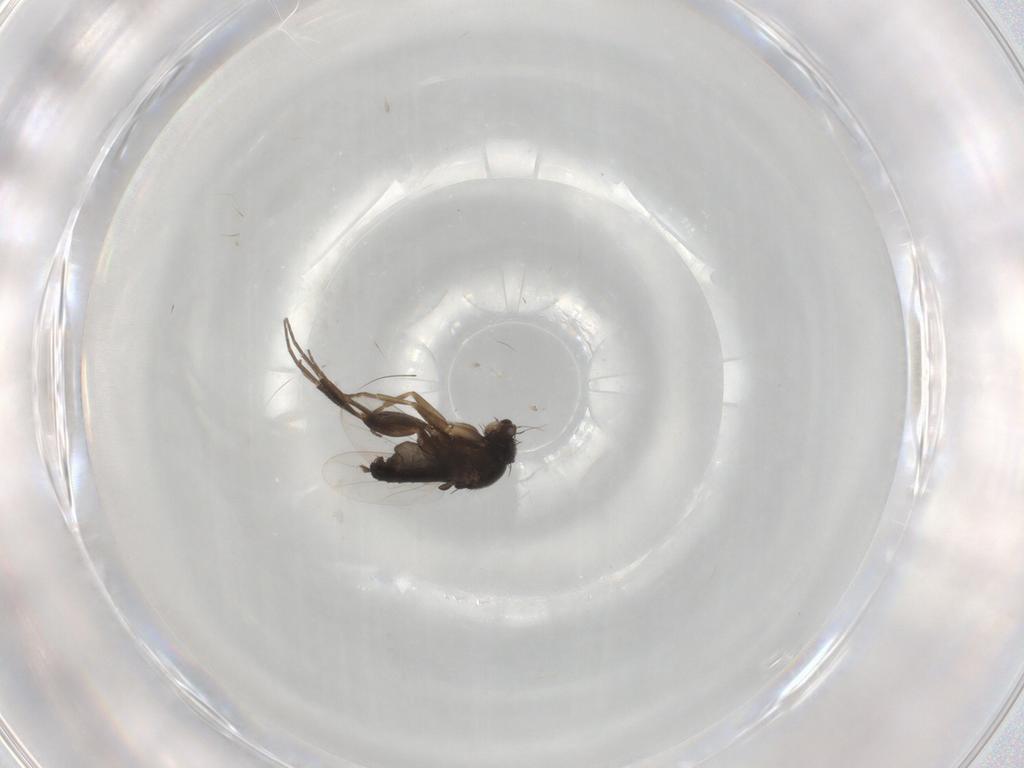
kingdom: Animalia
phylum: Arthropoda
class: Insecta
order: Diptera
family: Phoridae
